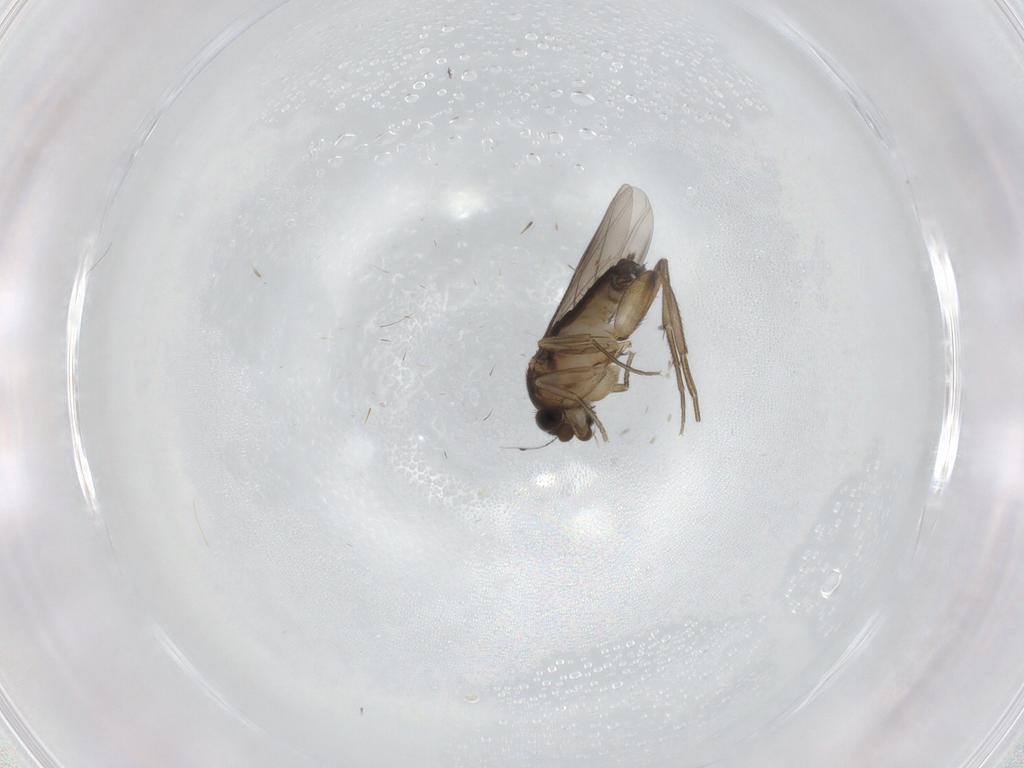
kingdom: Animalia
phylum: Arthropoda
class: Insecta
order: Diptera
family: Phoridae
